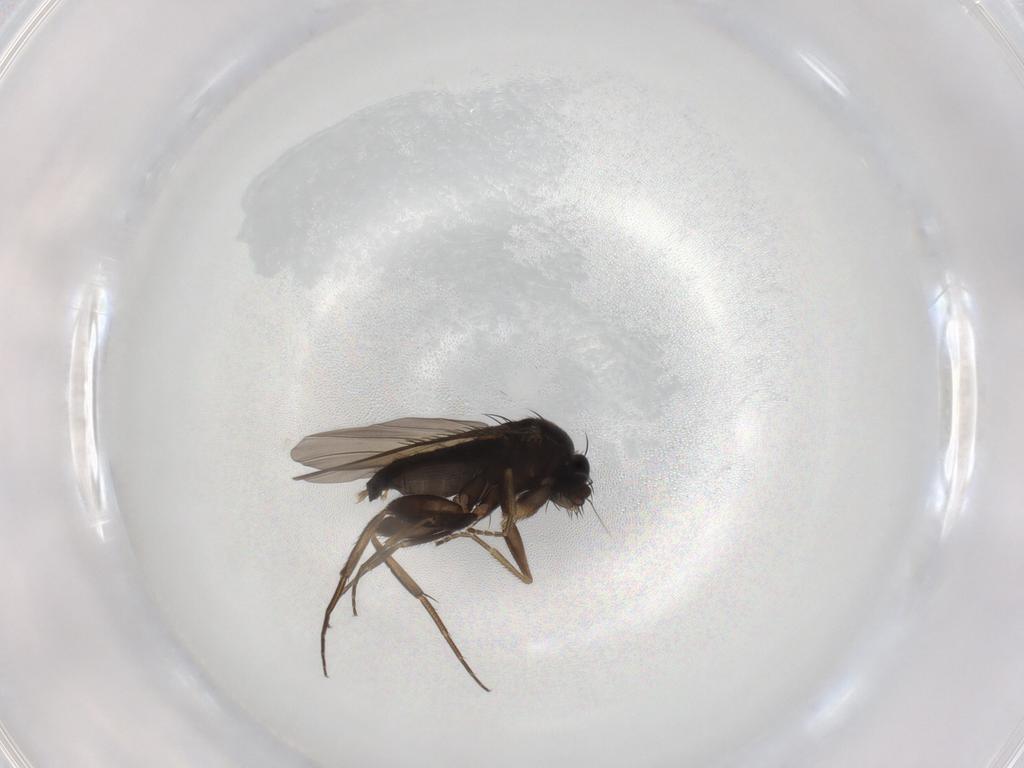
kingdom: Animalia
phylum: Arthropoda
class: Insecta
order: Diptera
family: Phoridae
